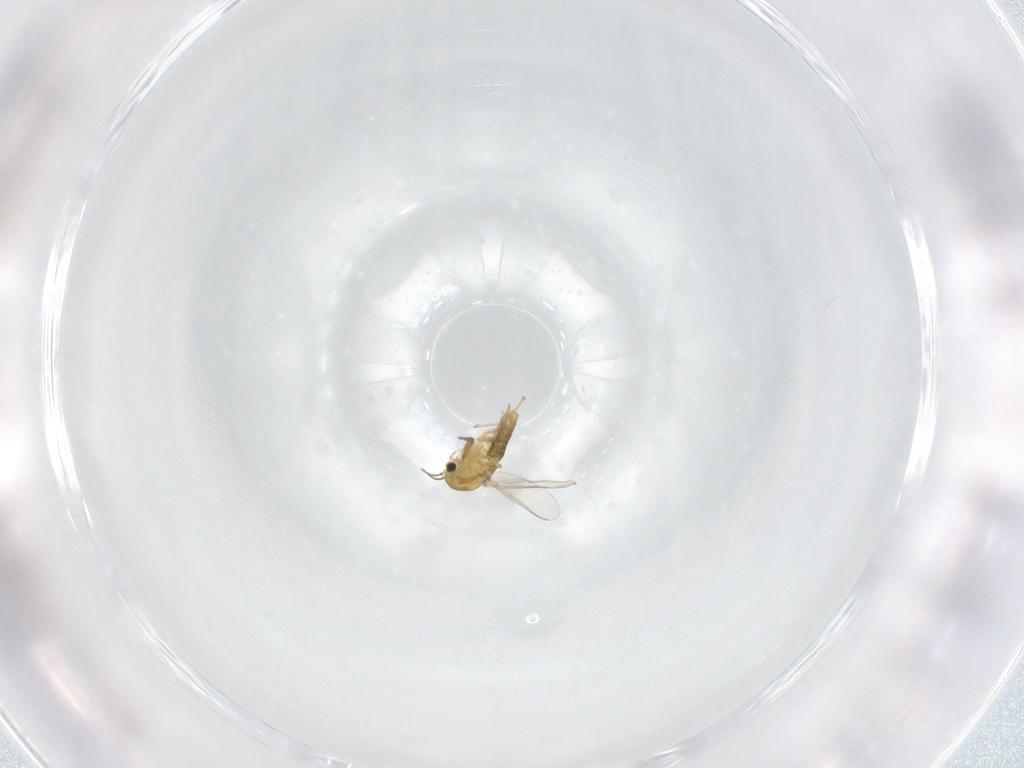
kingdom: Animalia
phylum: Arthropoda
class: Insecta
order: Diptera
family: Chironomidae
